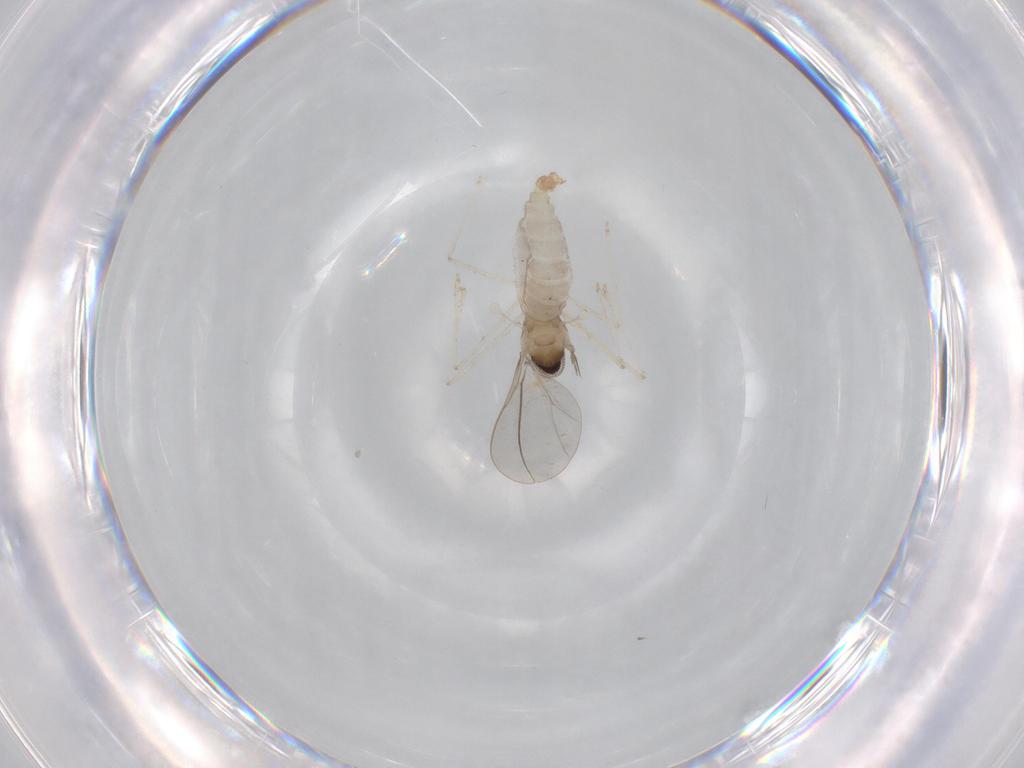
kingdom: Animalia
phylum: Arthropoda
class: Insecta
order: Diptera
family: Cecidomyiidae
